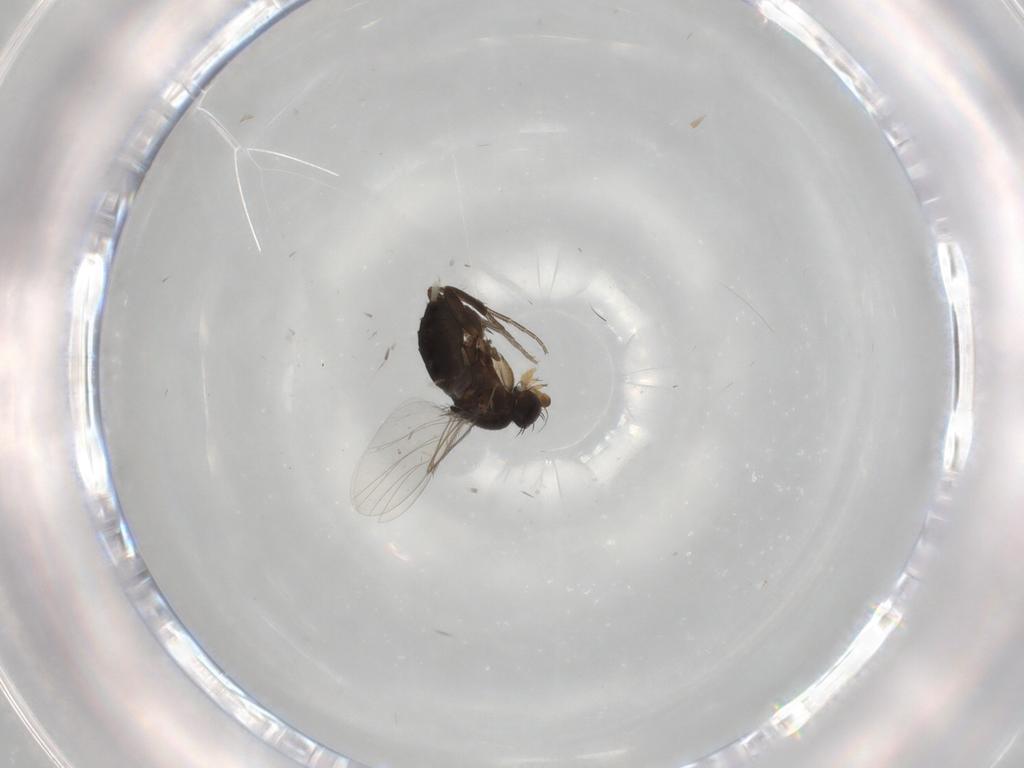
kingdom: Animalia
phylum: Arthropoda
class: Insecta
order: Diptera
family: Phoridae
